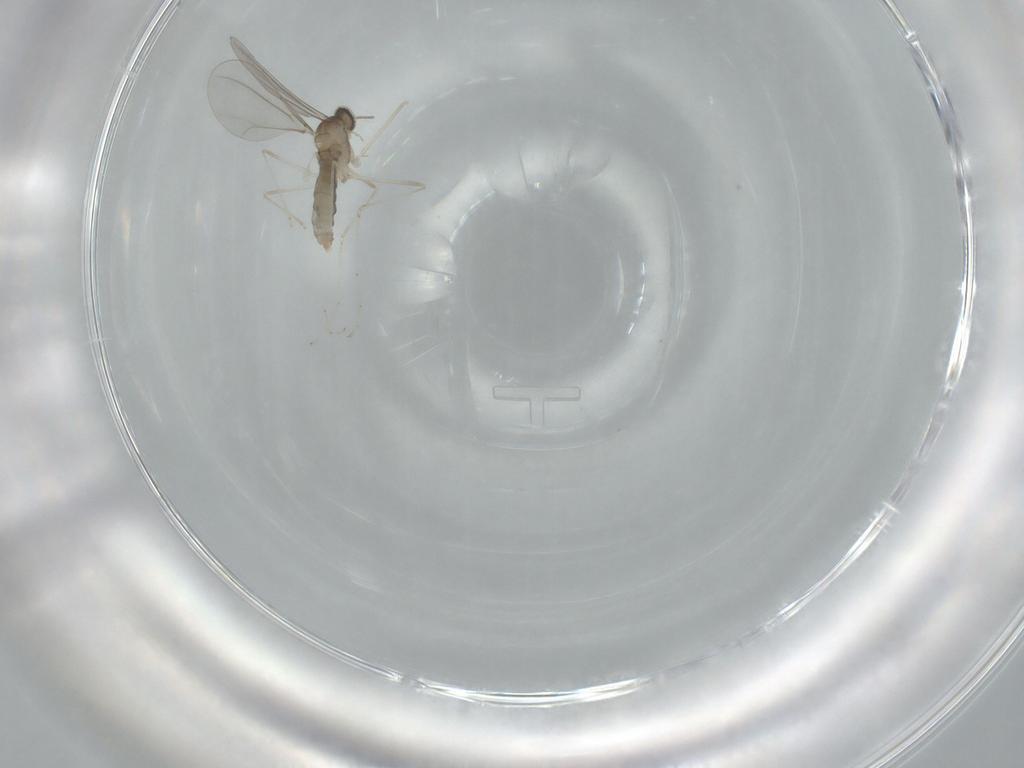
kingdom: Animalia
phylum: Arthropoda
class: Insecta
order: Diptera
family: Cecidomyiidae
